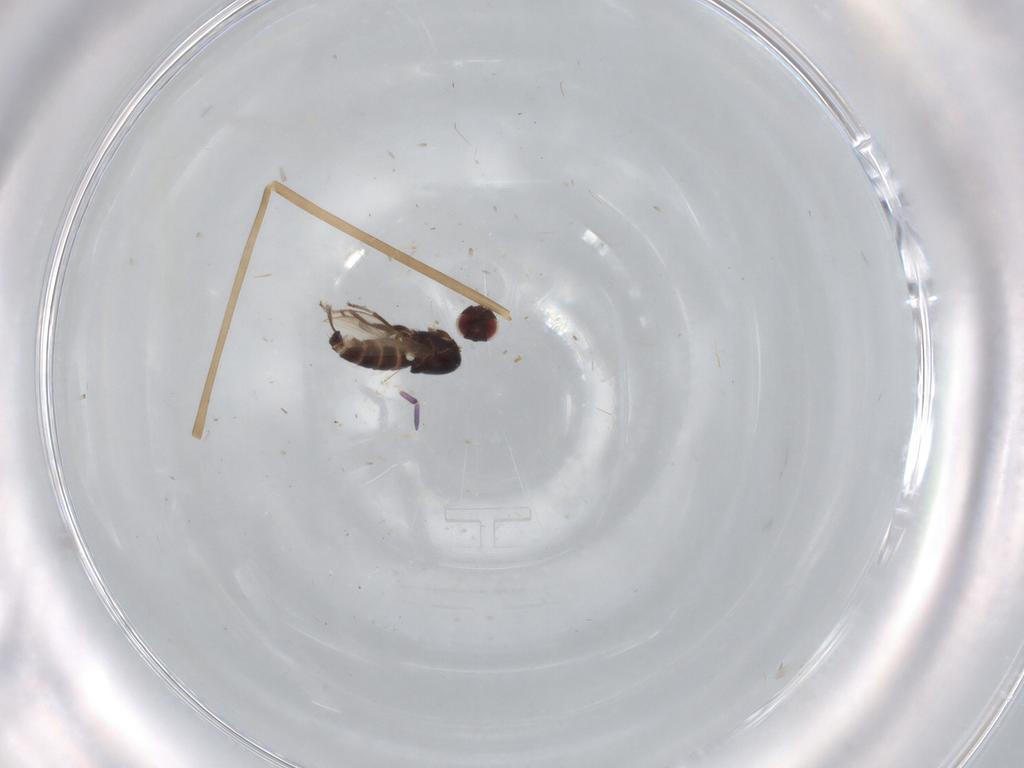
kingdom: Animalia
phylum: Arthropoda
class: Insecta
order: Diptera
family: Cecidomyiidae
